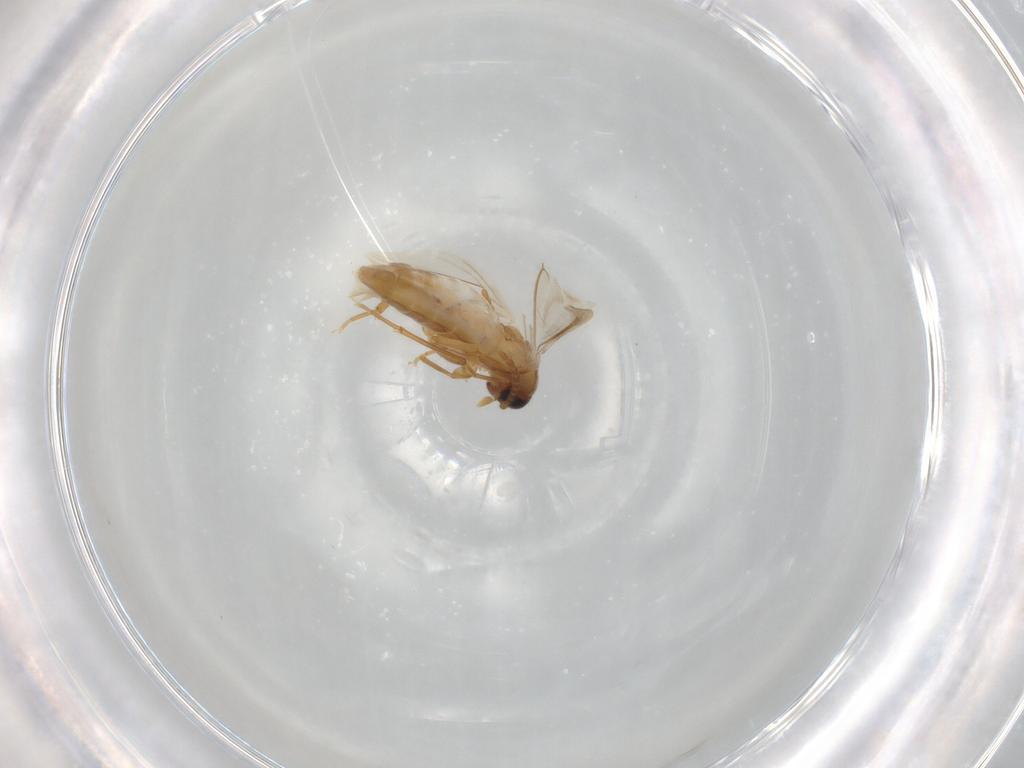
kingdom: Animalia
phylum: Arthropoda
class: Insecta
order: Coleoptera
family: Scraptiidae
